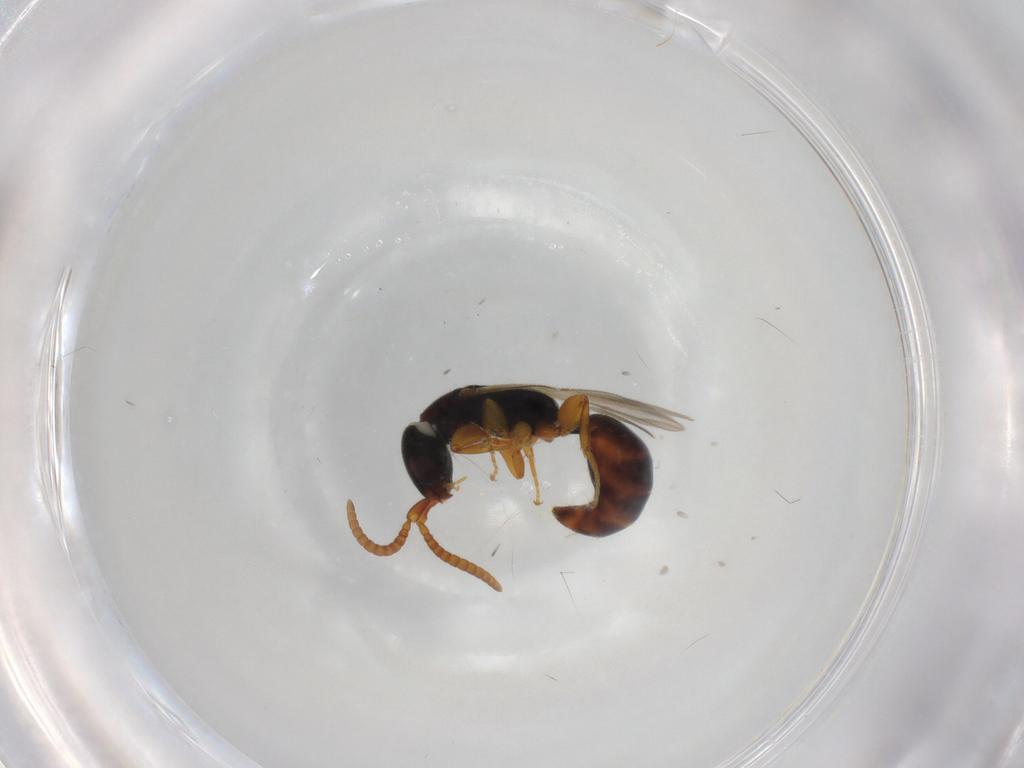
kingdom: Animalia
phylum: Arthropoda
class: Insecta
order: Hymenoptera
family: Bethylidae
